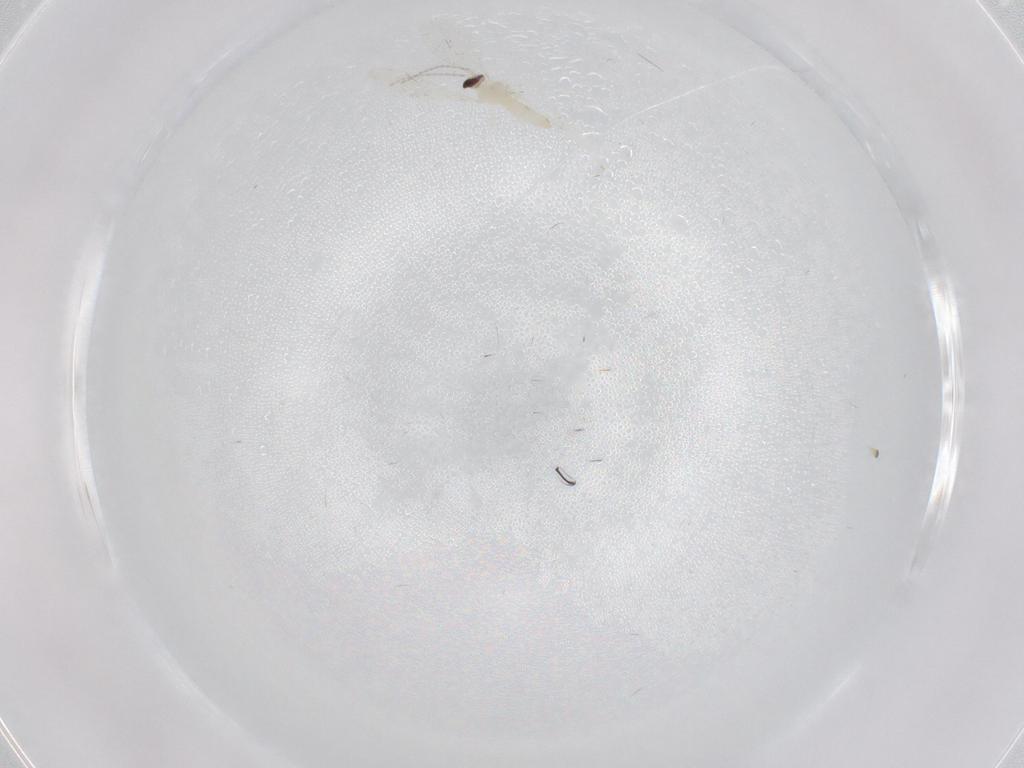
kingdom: Animalia
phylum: Arthropoda
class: Insecta
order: Diptera
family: Cecidomyiidae
